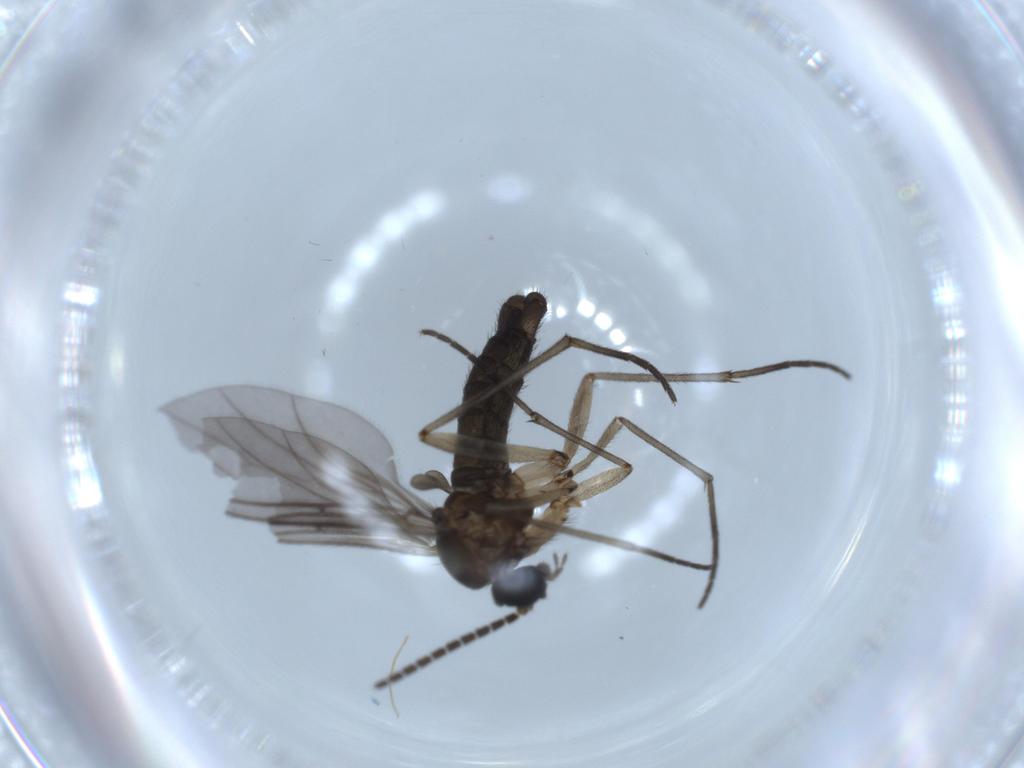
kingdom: Animalia
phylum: Arthropoda
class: Insecta
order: Diptera
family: Sciaridae
